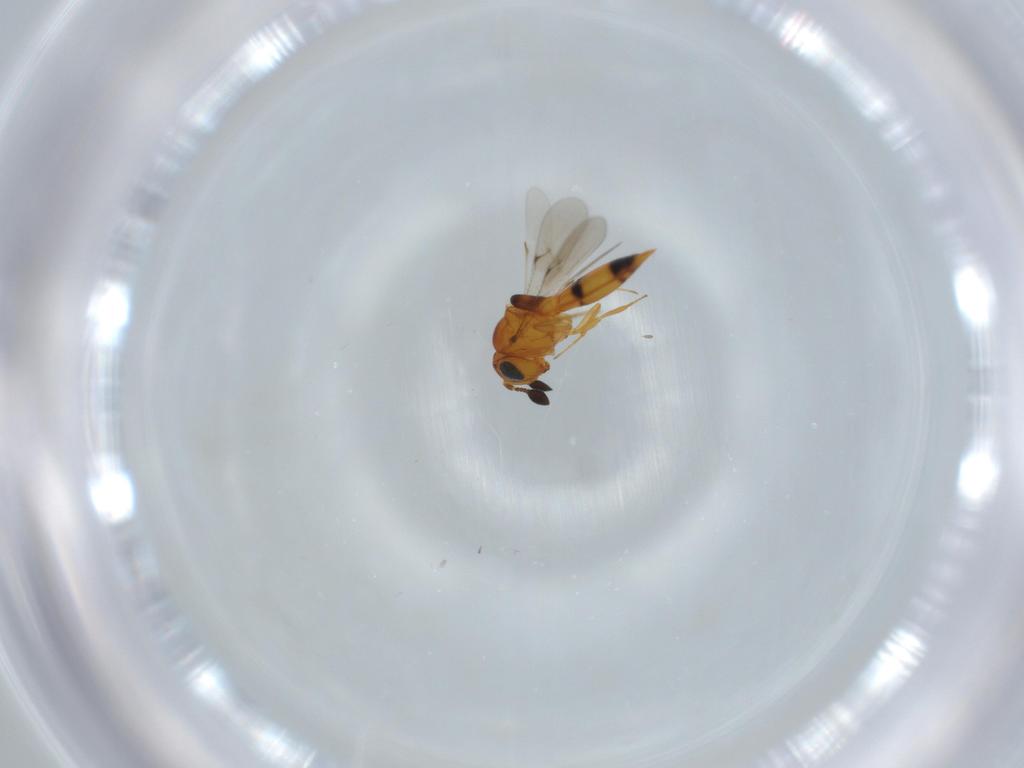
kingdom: Animalia
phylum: Arthropoda
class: Insecta
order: Hymenoptera
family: Scelionidae
